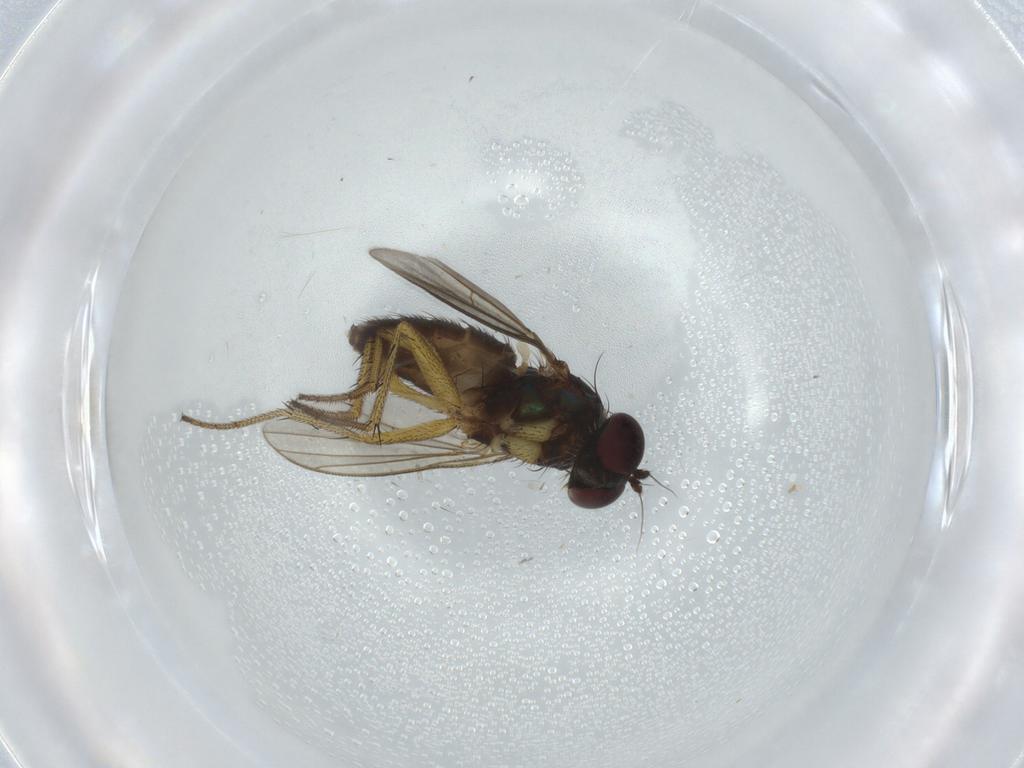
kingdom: Animalia
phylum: Arthropoda
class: Insecta
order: Diptera
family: Dolichopodidae
